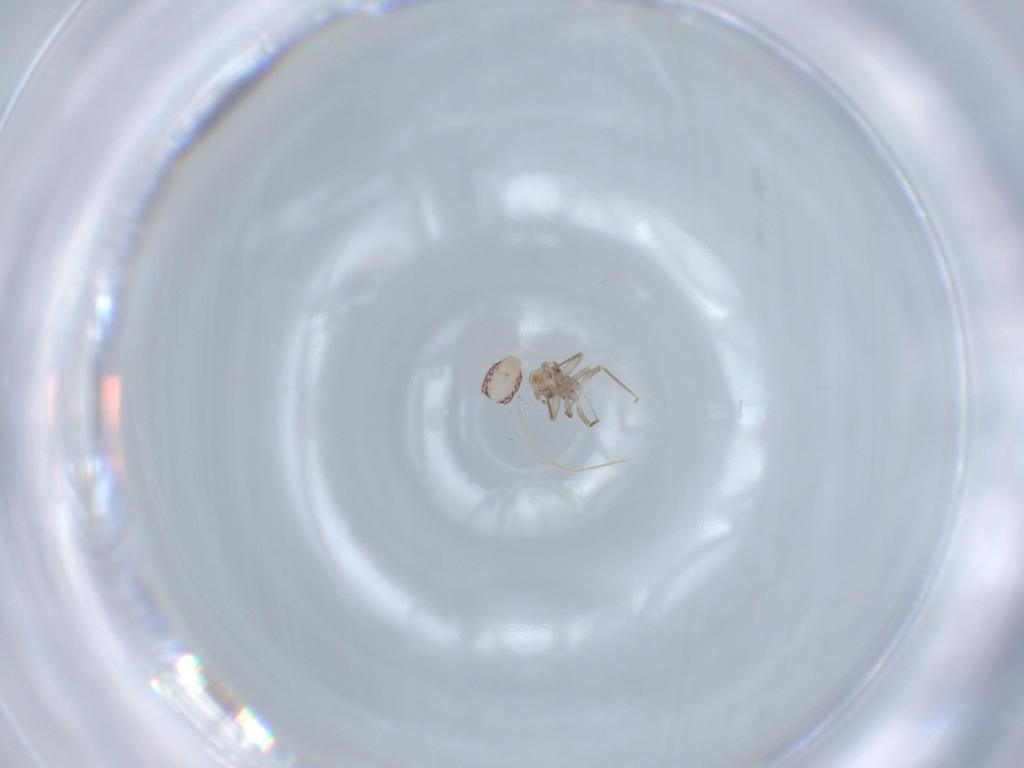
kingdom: Animalia
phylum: Arthropoda
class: Insecta
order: Psocodea
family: Lepidopsocidae
